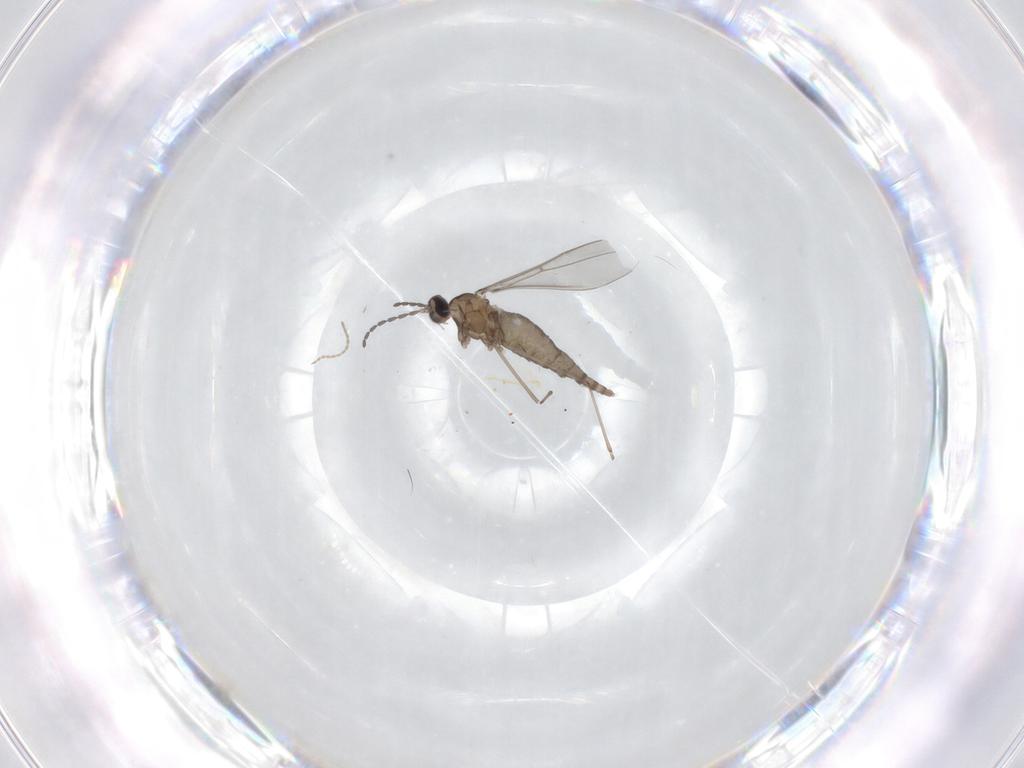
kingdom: Animalia
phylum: Arthropoda
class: Insecta
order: Diptera
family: Cecidomyiidae
